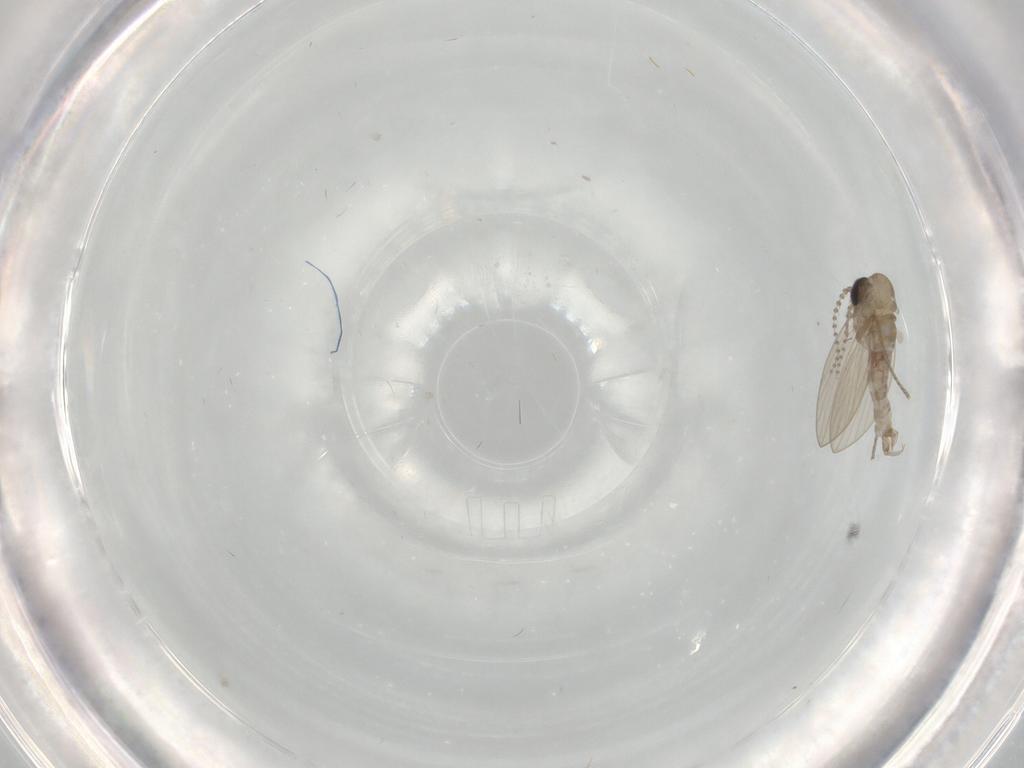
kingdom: Animalia
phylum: Arthropoda
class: Insecta
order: Diptera
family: Psychodidae
